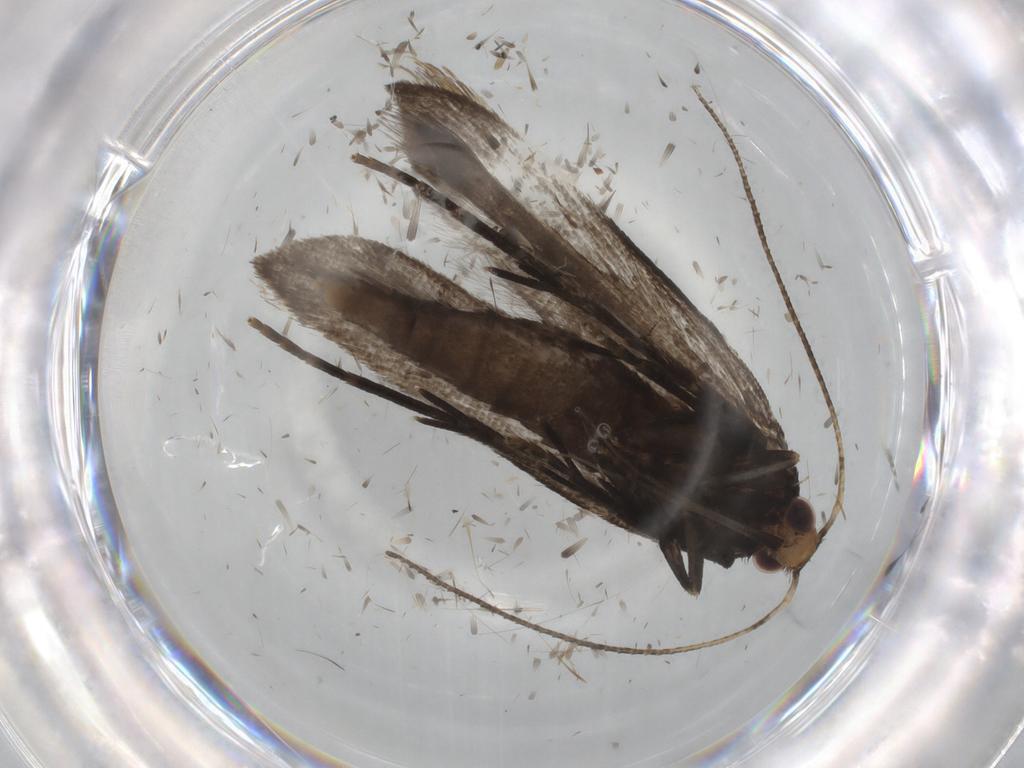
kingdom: Animalia
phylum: Arthropoda
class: Insecta
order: Lepidoptera
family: Gelechiidae
